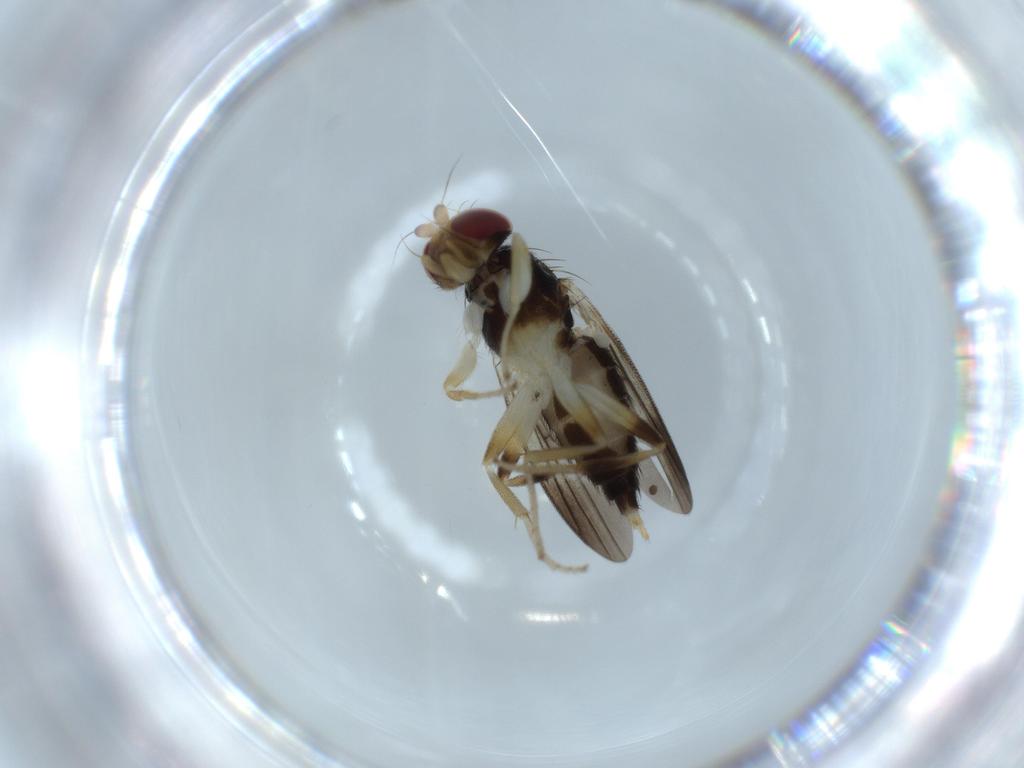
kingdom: Animalia
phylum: Arthropoda
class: Insecta
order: Diptera
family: Clusiidae
